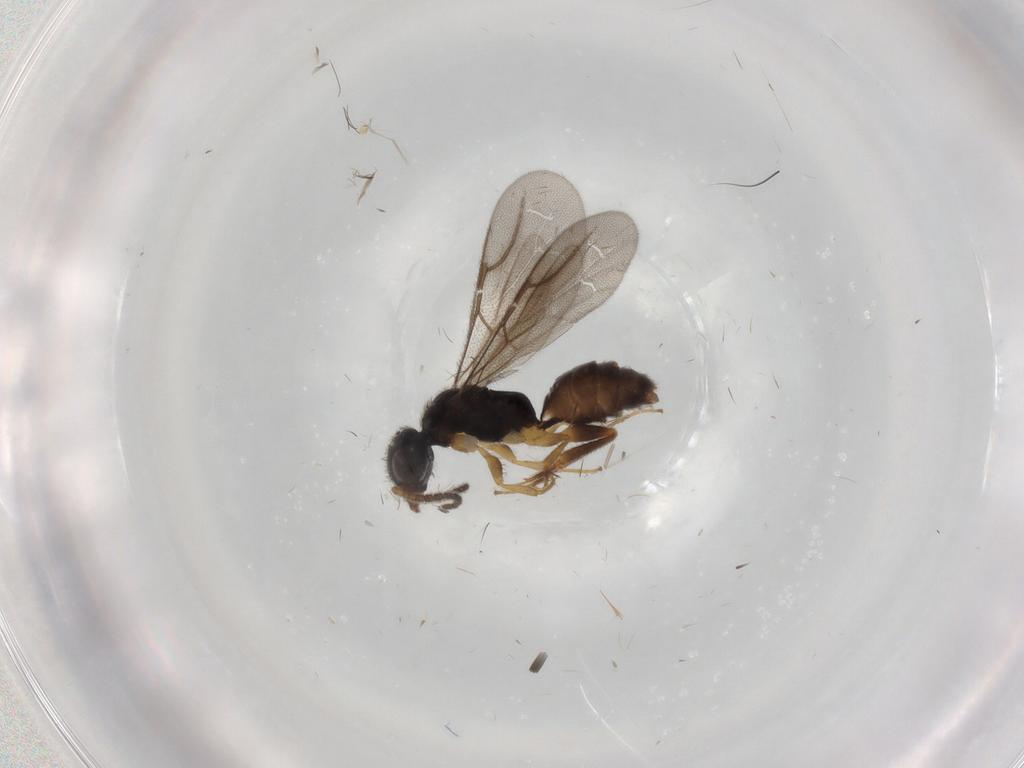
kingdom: Animalia
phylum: Arthropoda
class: Insecta
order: Hymenoptera
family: Bethylidae
